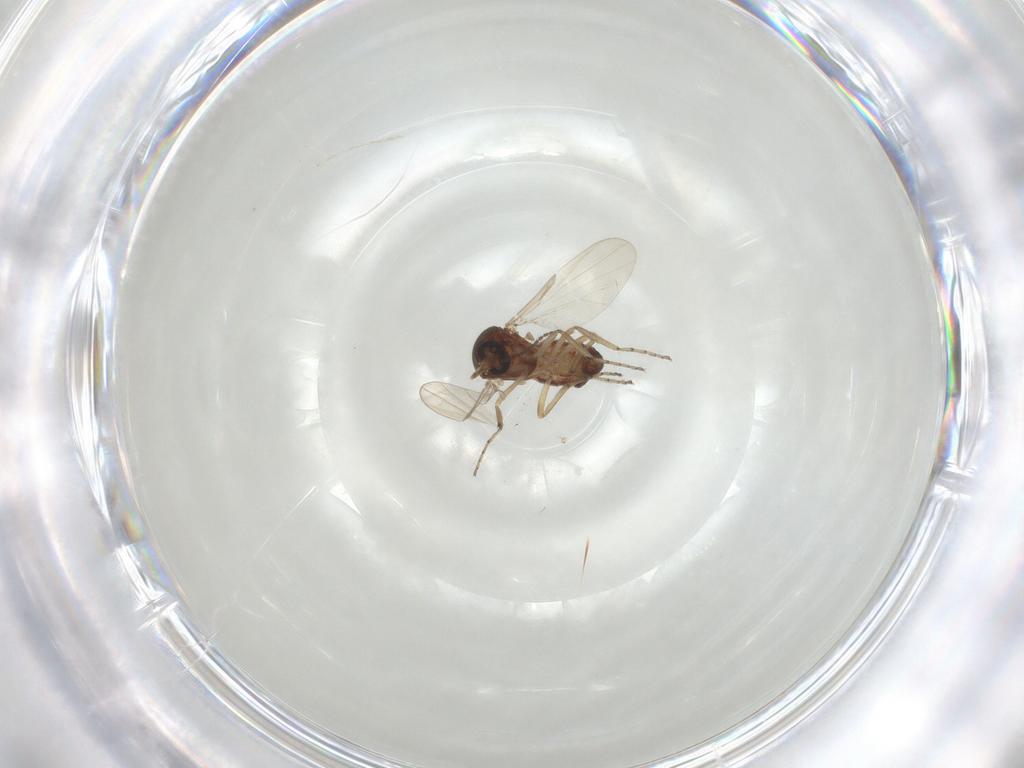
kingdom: Animalia
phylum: Arthropoda
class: Insecta
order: Diptera
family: Ceratopogonidae
